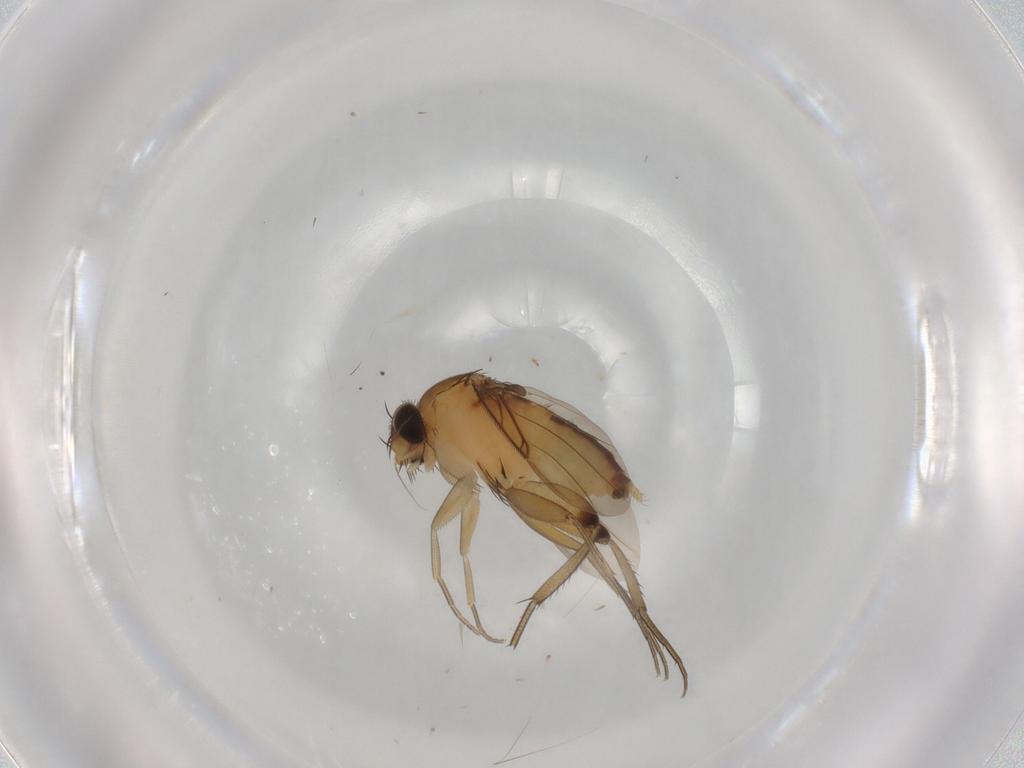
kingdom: Animalia
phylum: Arthropoda
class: Insecta
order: Diptera
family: Phoridae
